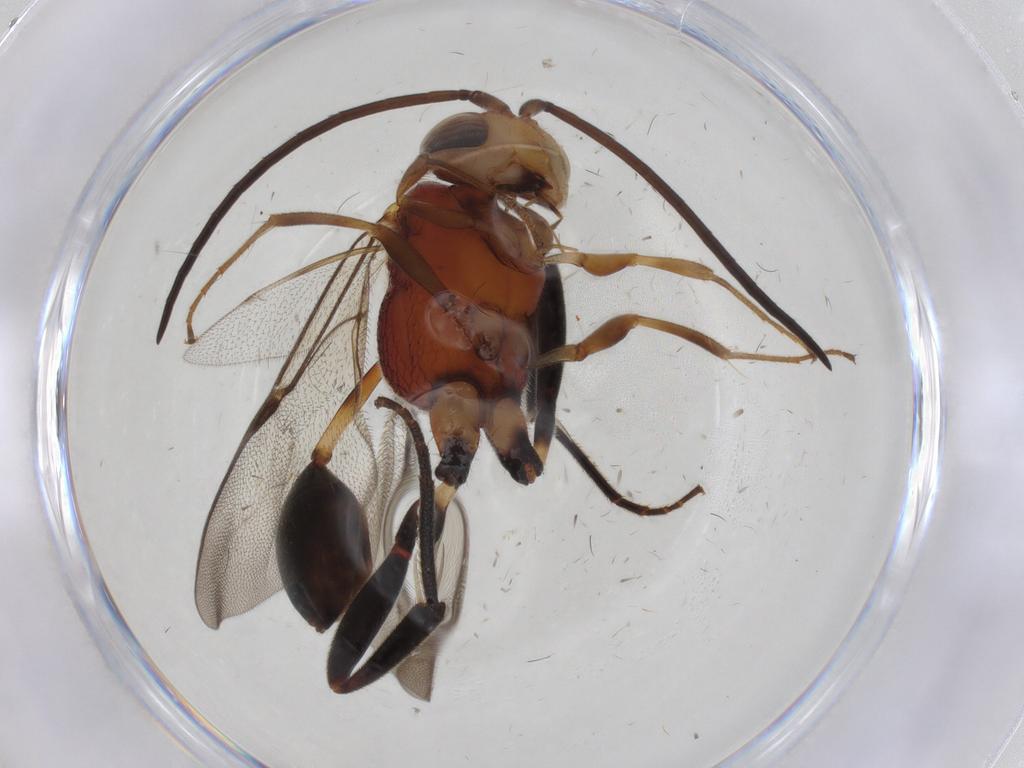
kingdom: Animalia
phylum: Arthropoda
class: Insecta
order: Hymenoptera
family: Evaniidae
